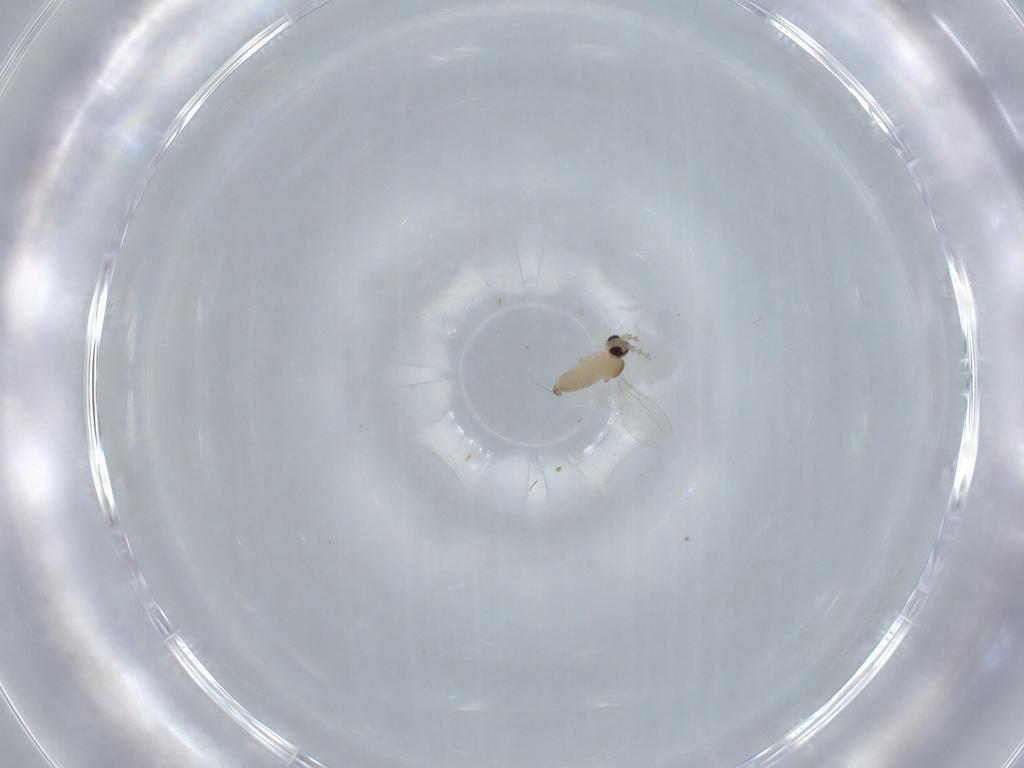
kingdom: Animalia
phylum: Arthropoda
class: Insecta
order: Diptera
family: Cecidomyiidae
